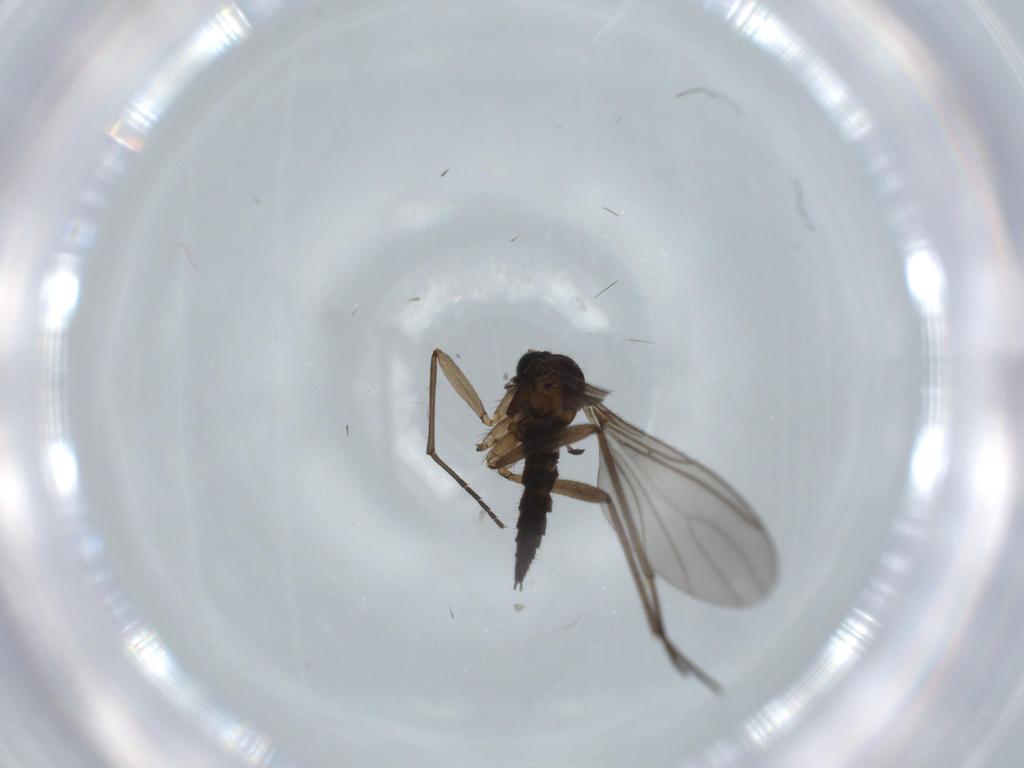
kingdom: Animalia
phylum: Arthropoda
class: Insecta
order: Diptera
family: Sciaridae
